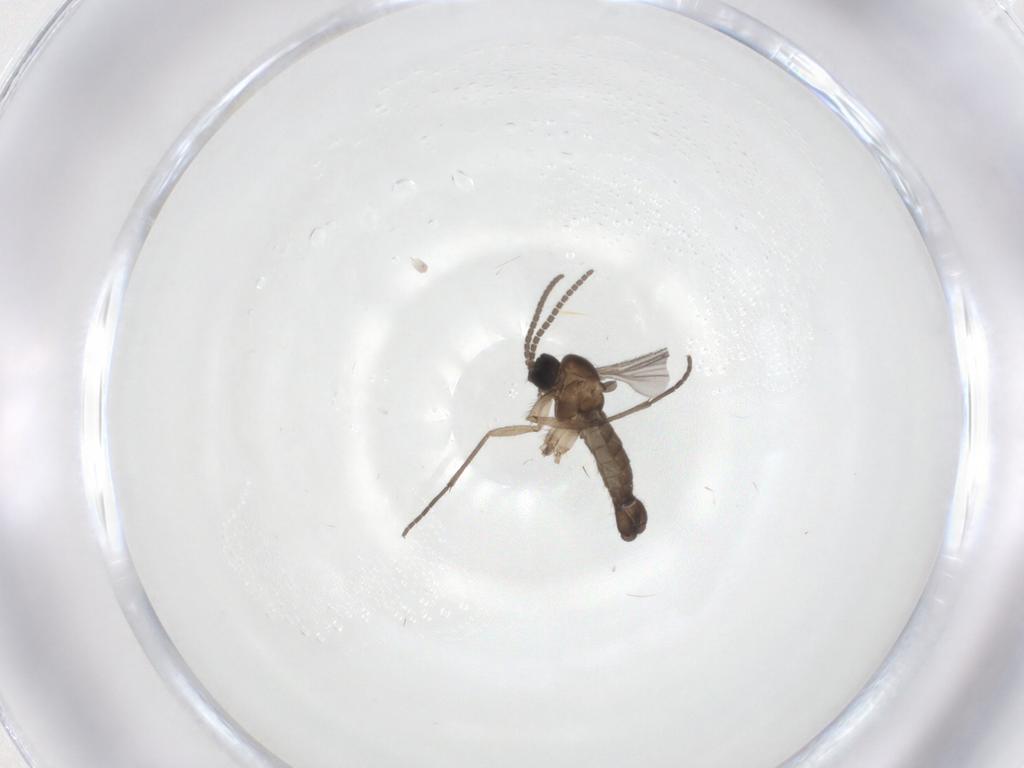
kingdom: Animalia
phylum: Arthropoda
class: Insecta
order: Diptera
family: Sciaridae
